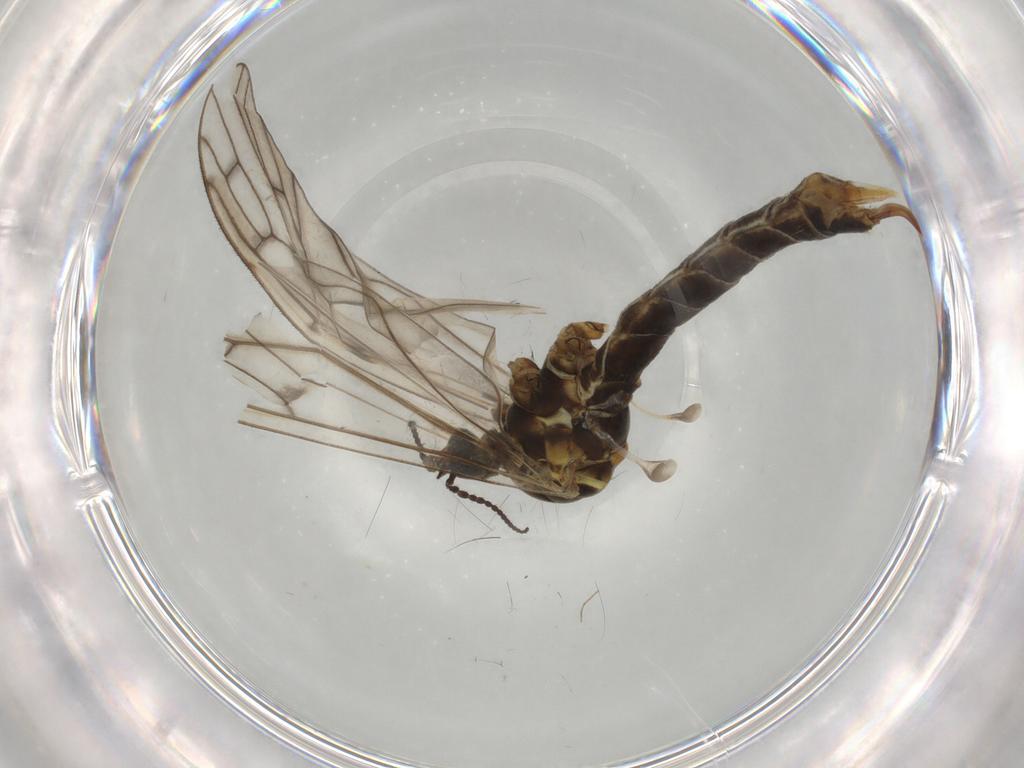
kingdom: Animalia
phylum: Arthropoda
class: Insecta
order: Diptera
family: Limoniidae
